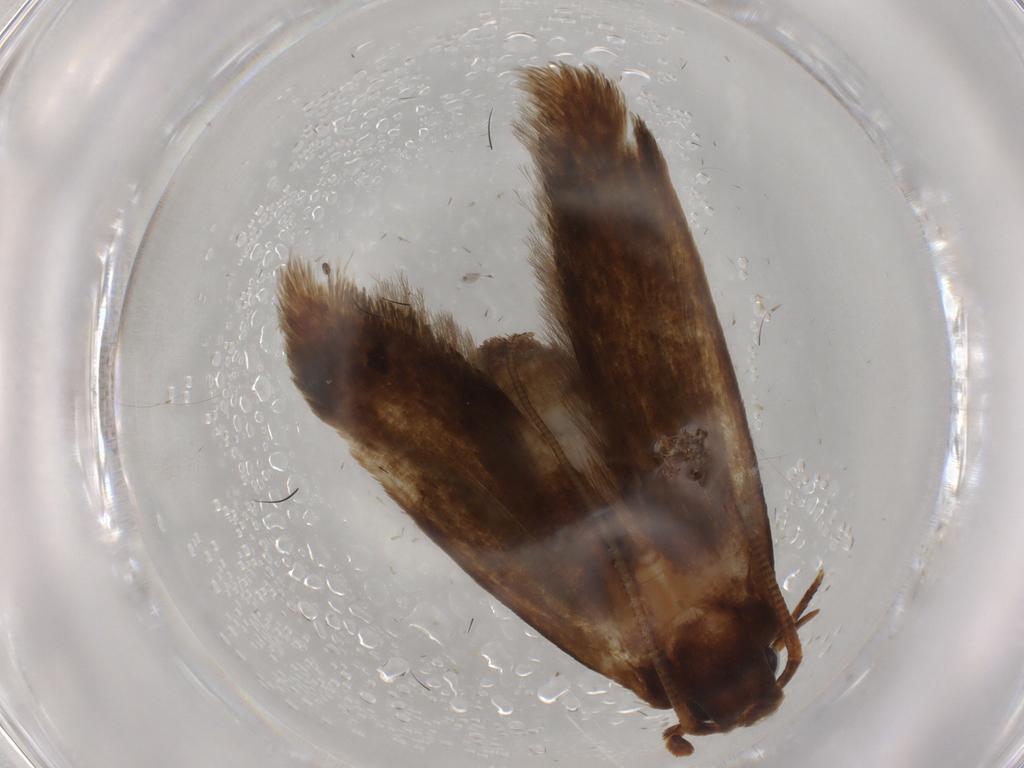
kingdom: Animalia
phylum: Arthropoda
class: Insecta
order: Lepidoptera
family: Tineidae
